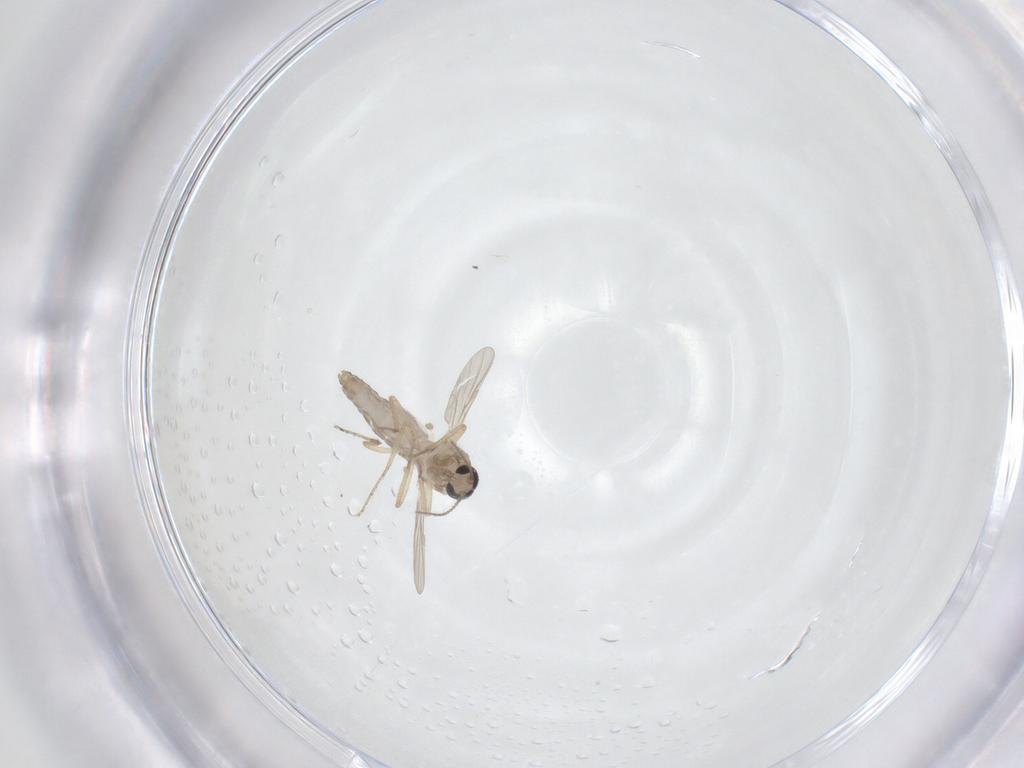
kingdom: Animalia
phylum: Arthropoda
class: Insecta
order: Diptera
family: Ceratopogonidae
